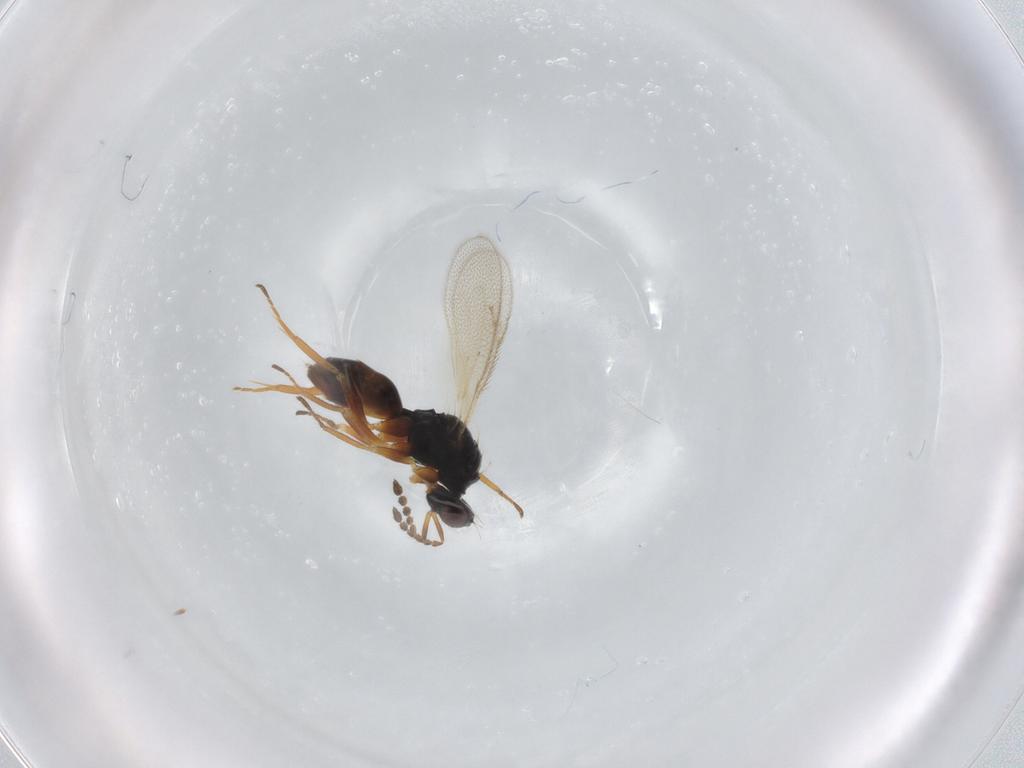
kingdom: Animalia
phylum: Arthropoda
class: Insecta
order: Hymenoptera
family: Eulophidae
